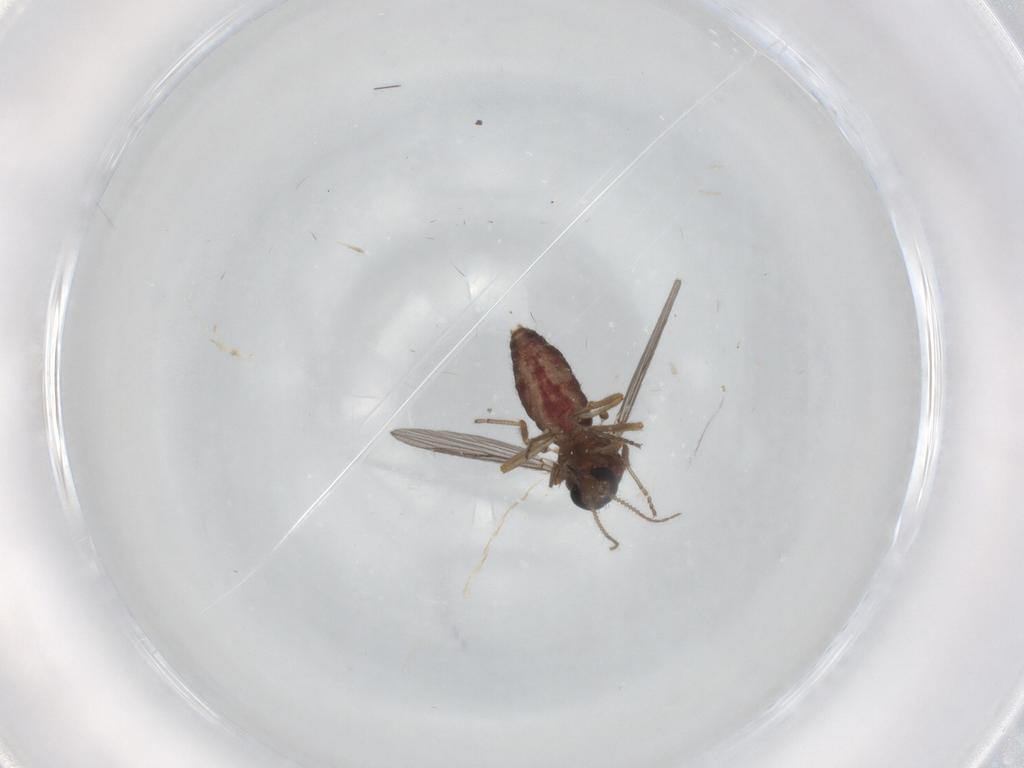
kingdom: Animalia
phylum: Arthropoda
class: Insecta
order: Diptera
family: Ceratopogonidae
